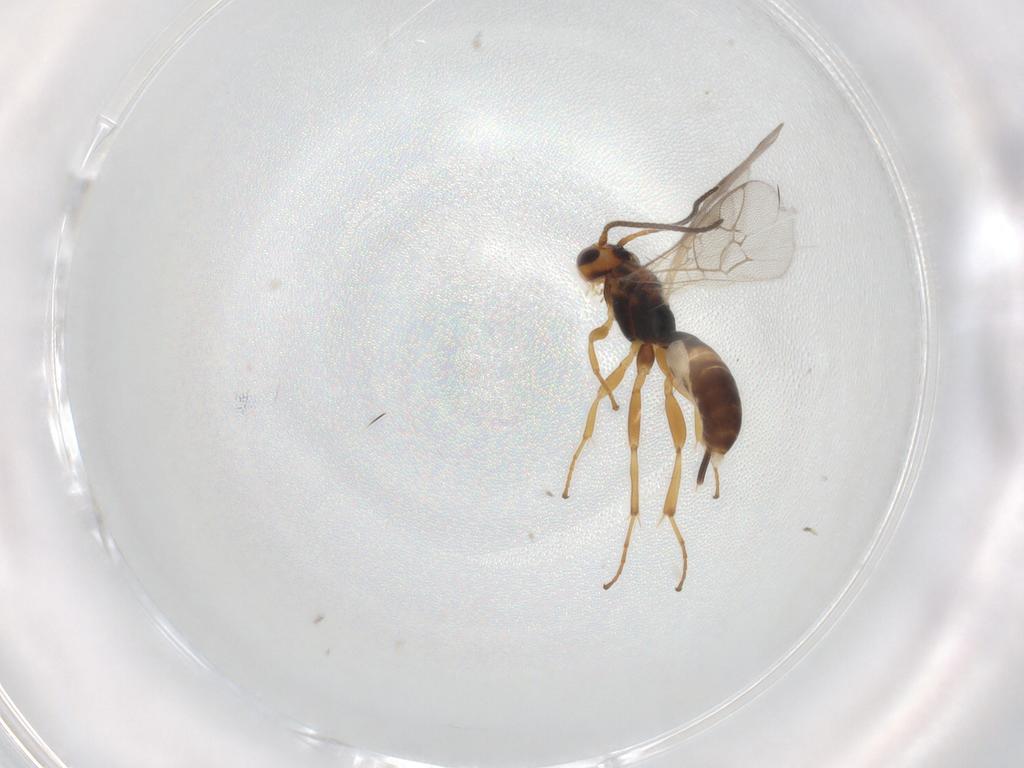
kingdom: Animalia
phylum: Arthropoda
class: Insecta
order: Hymenoptera
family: Ichneumonidae
